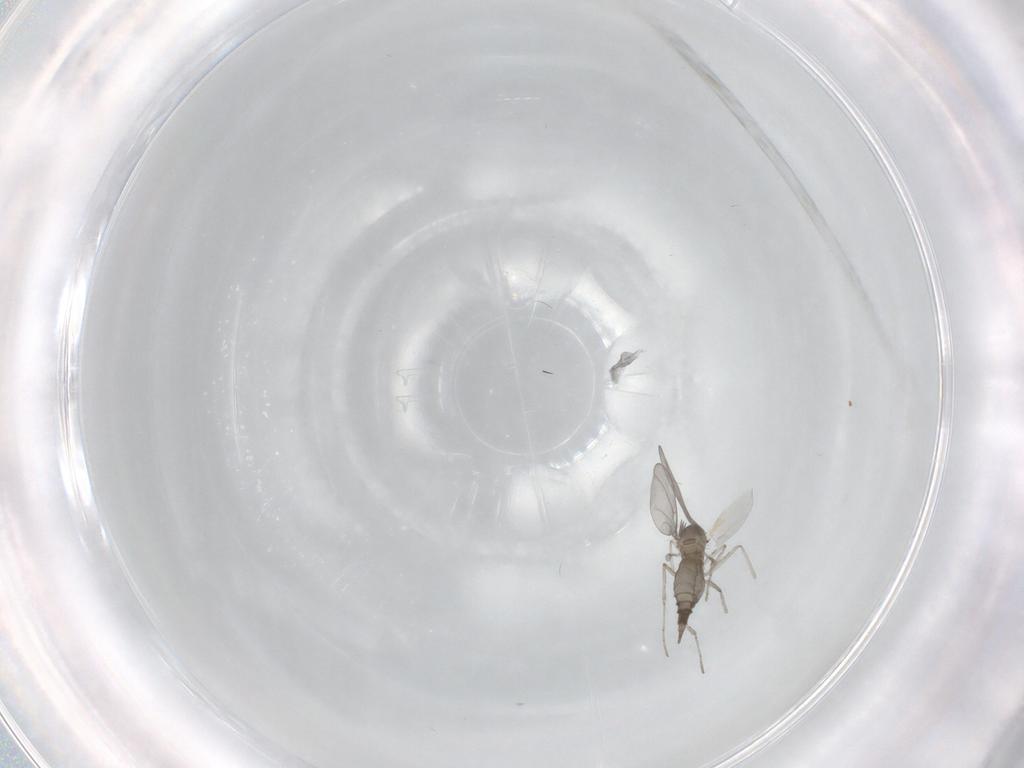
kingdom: Animalia
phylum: Arthropoda
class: Insecta
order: Diptera
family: Cecidomyiidae
